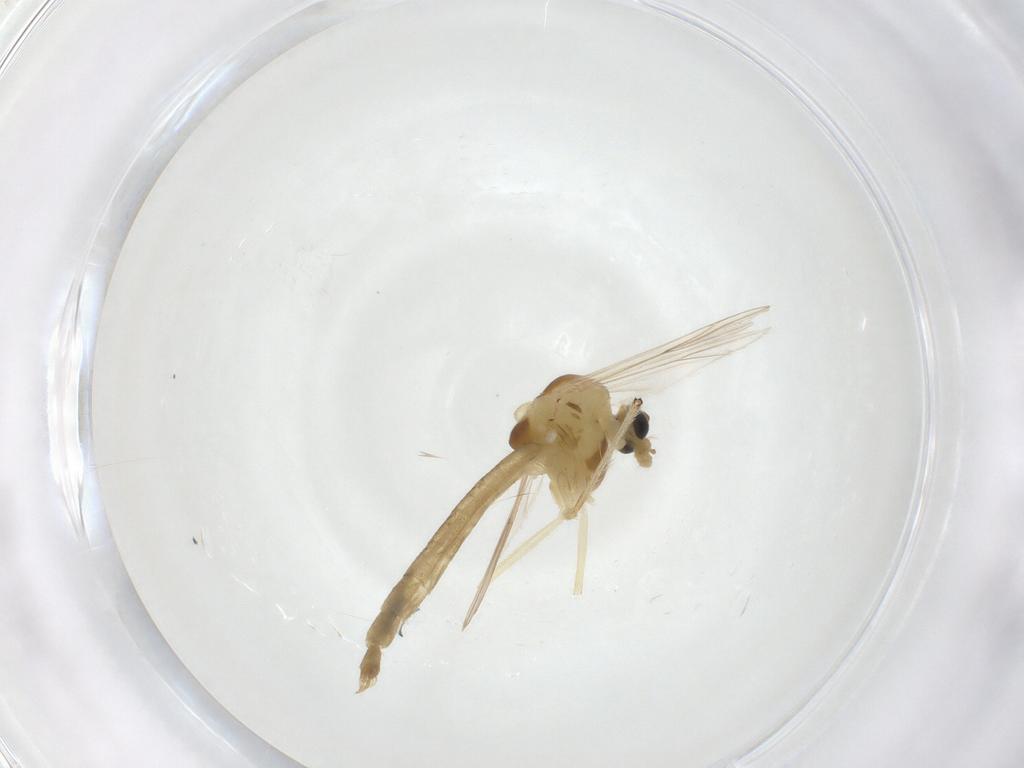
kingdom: Animalia
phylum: Arthropoda
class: Insecta
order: Diptera
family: Chironomidae
